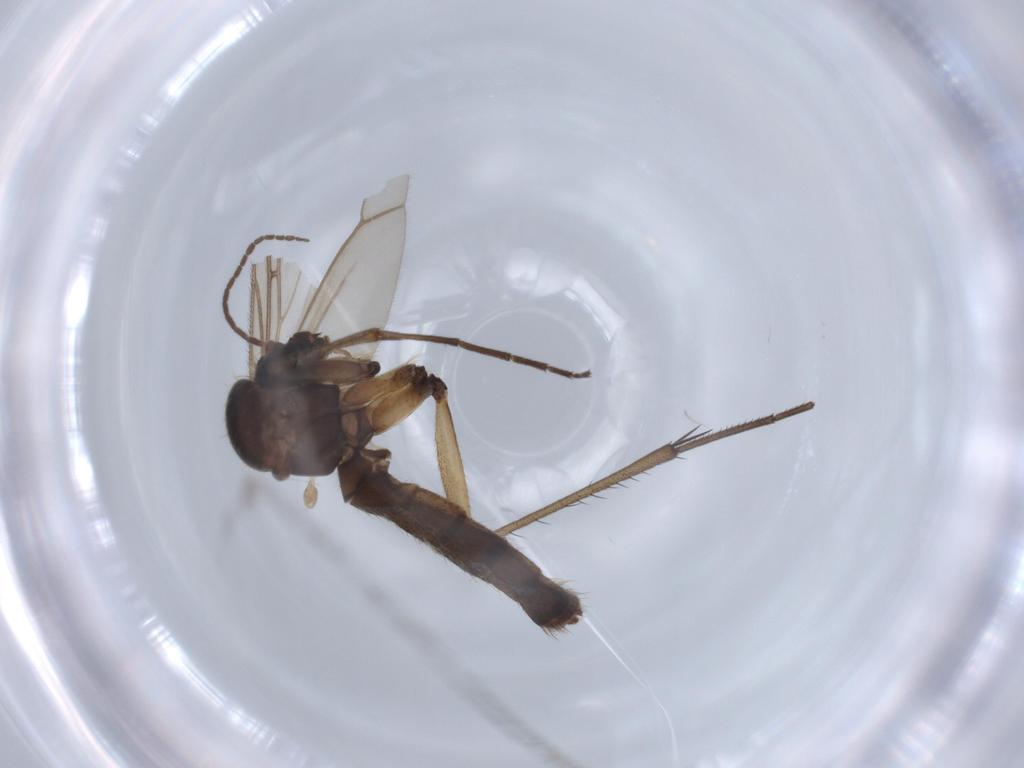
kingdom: Animalia
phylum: Arthropoda
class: Insecta
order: Diptera
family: Mycetophilidae
